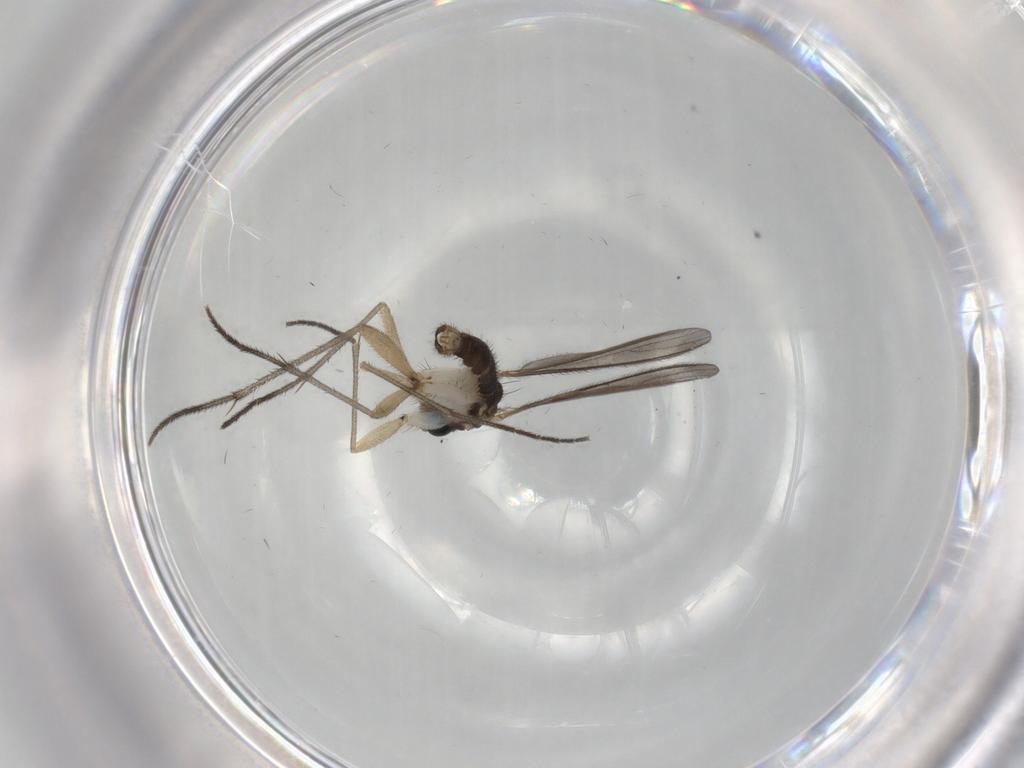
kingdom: Animalia
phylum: Arthropoda
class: Insecta
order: Diptera
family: Sciaridae
